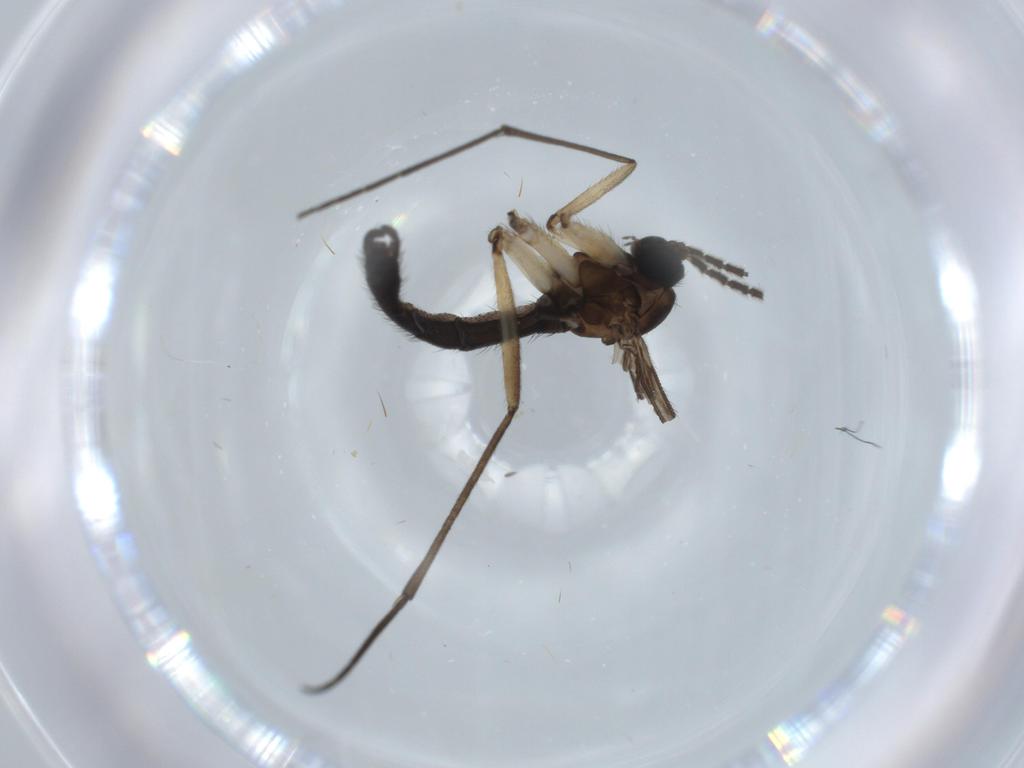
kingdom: Animalia
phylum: Arthropoda
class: Insecta
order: Diptera
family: Sciaridae
